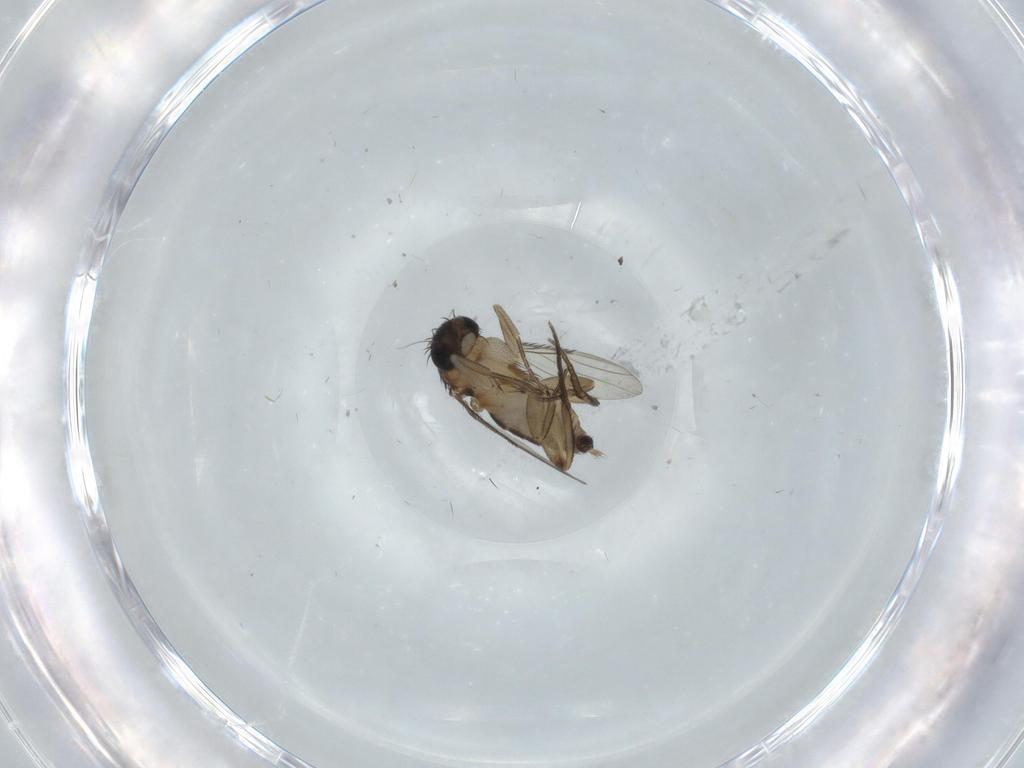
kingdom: Animalia
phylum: Arthropoda
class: Insecta
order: Diptera
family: Phoridae
